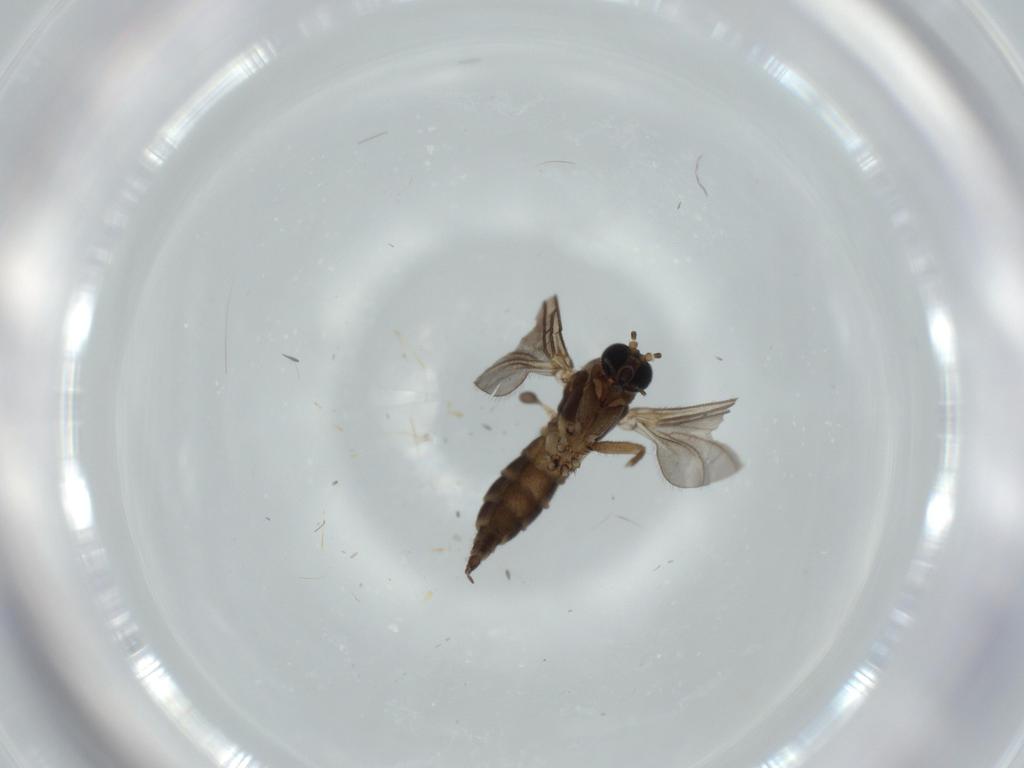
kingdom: Animalia
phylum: Arthropoda
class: Insecta
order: Diptera
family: Sciaridae
